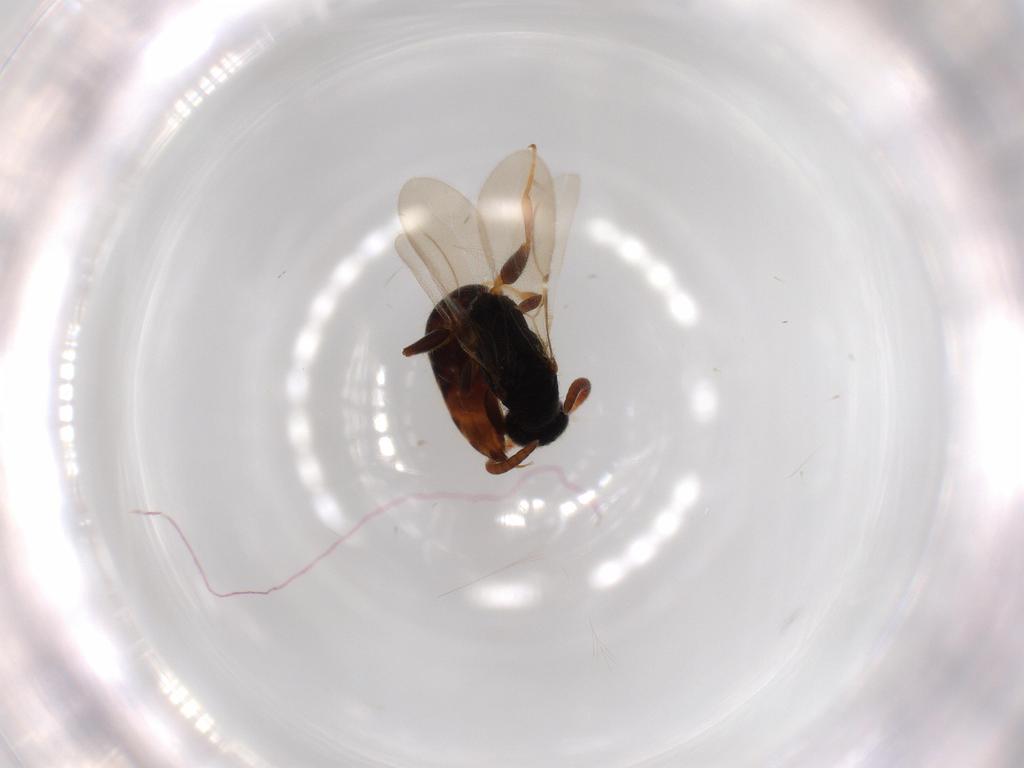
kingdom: Animalia
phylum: Arthropoda
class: Insecta
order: Hymenoptera
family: Bethylidae
